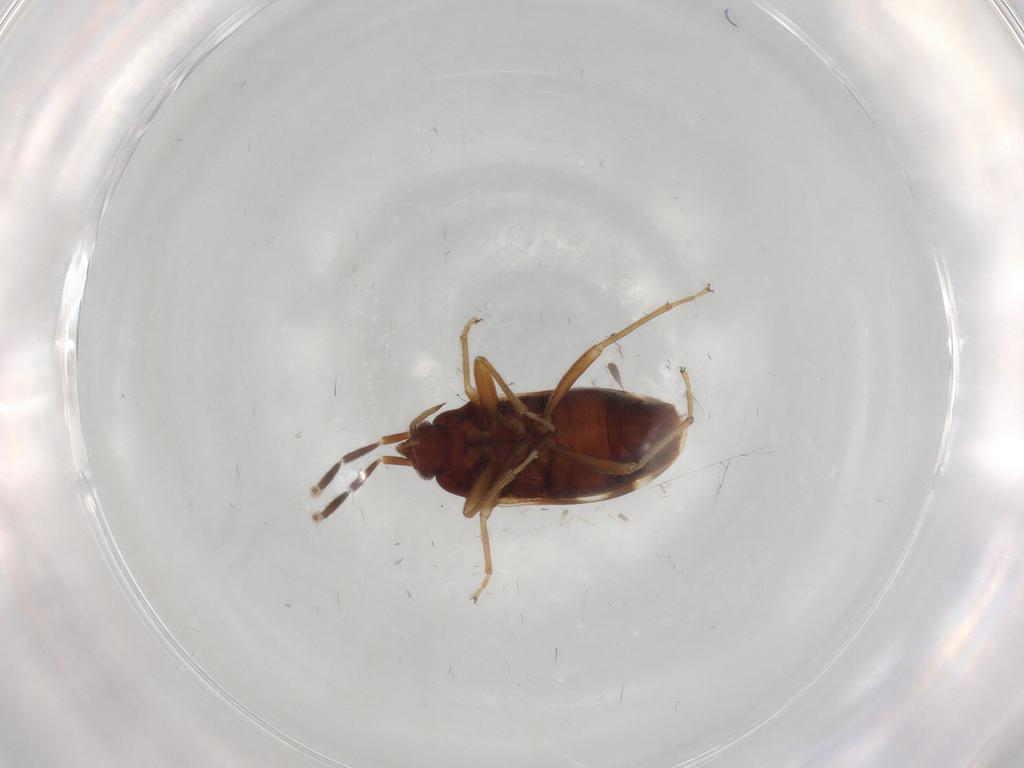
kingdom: Animalia
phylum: Arthropoda
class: Insecta
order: Hemiptera
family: Rhyparochromidae
